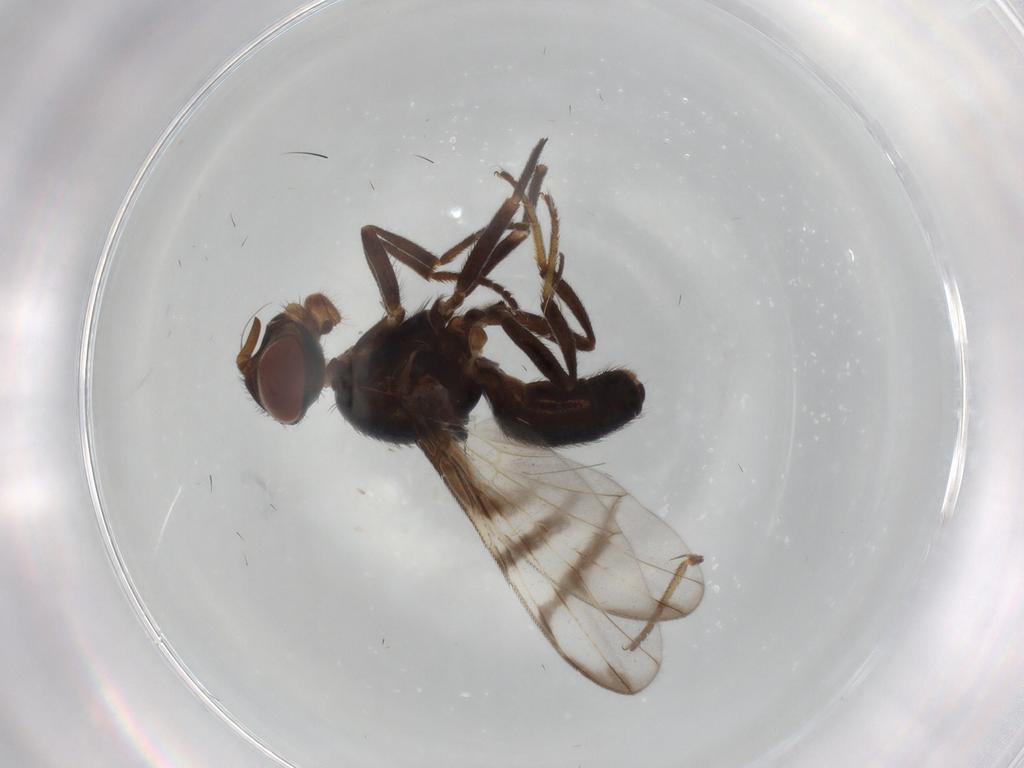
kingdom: Animalia
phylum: Arthropoda
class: Insecta
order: Diptera
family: Platystomatidae
